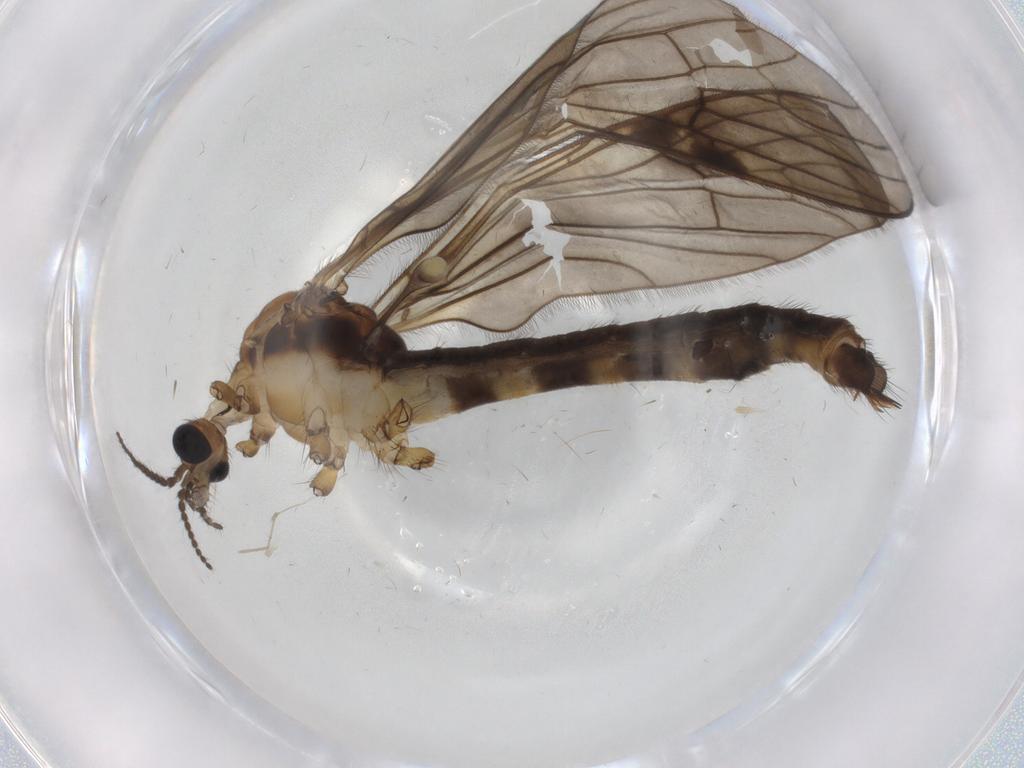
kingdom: Animalia
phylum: Arthropoda
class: Insecta
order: Diptera
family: Limoniidae
